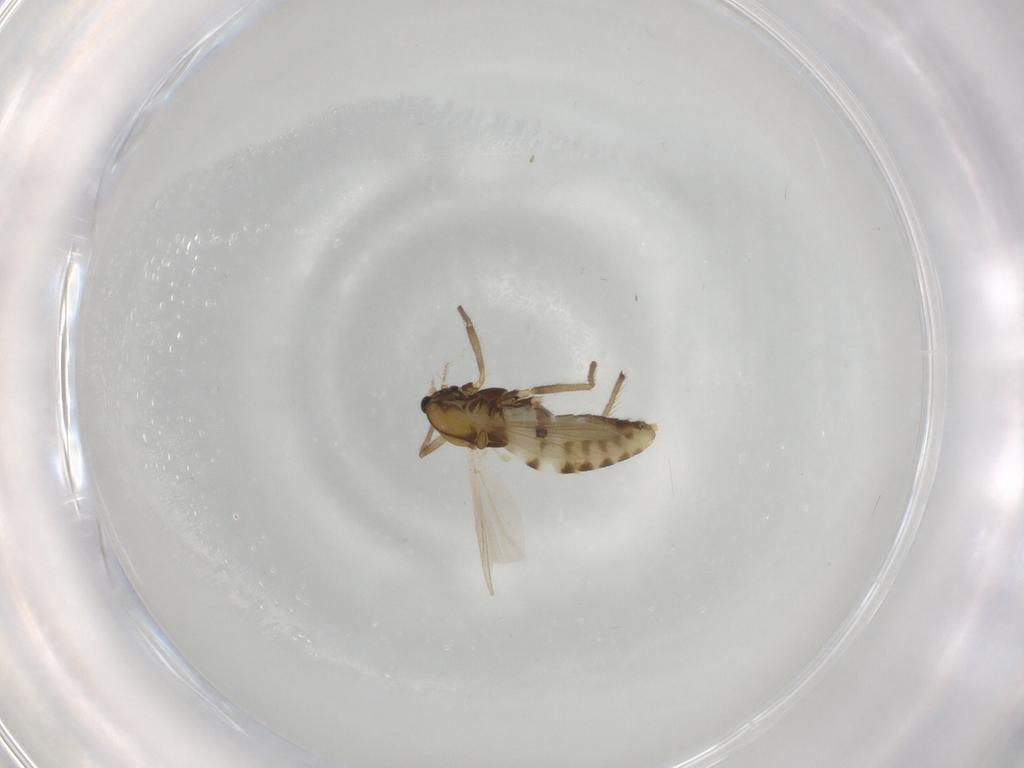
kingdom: Animalia
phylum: Arthropoda
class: Insecta
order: Diptera
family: Chironomidae
